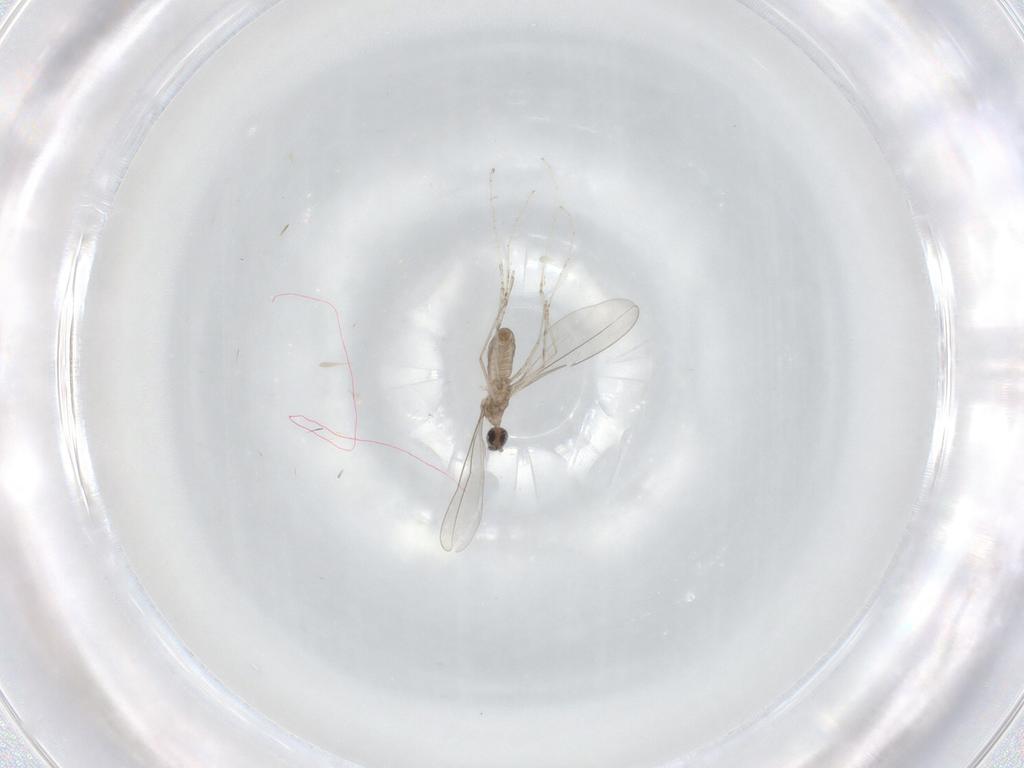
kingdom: Animalia
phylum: Arthropoda
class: Insecta
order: Diptera
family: Cecidomyiidae
